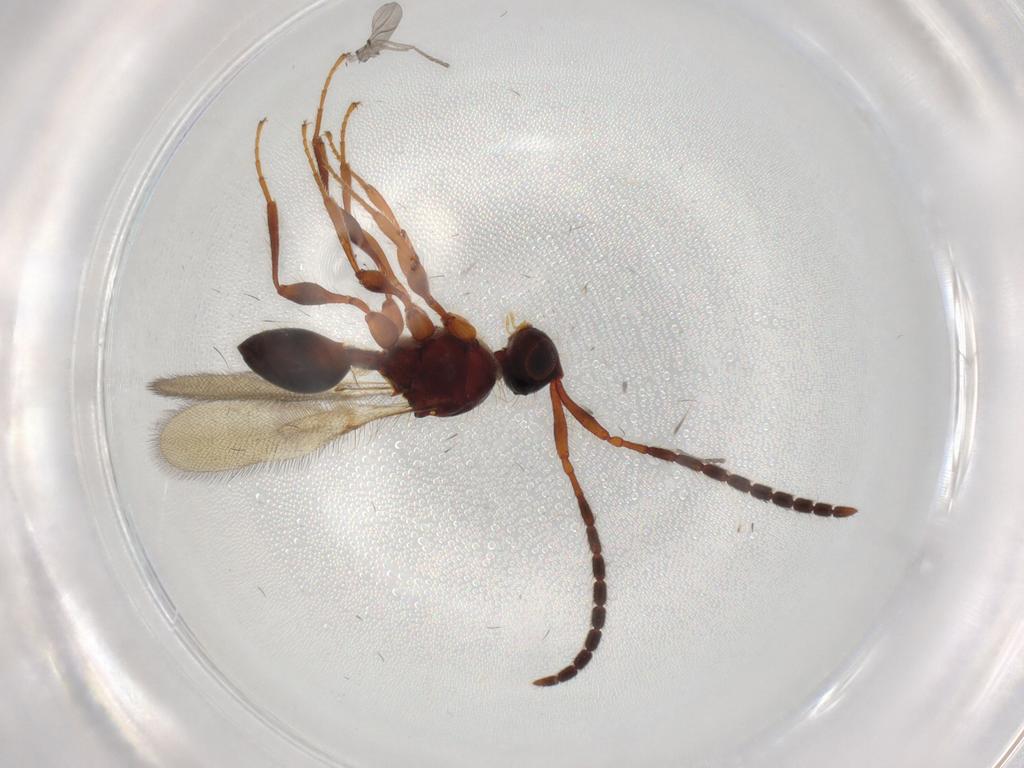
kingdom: Animalia
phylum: Arthropoda
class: Insecta
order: Hymenoptera
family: Diapriidae
